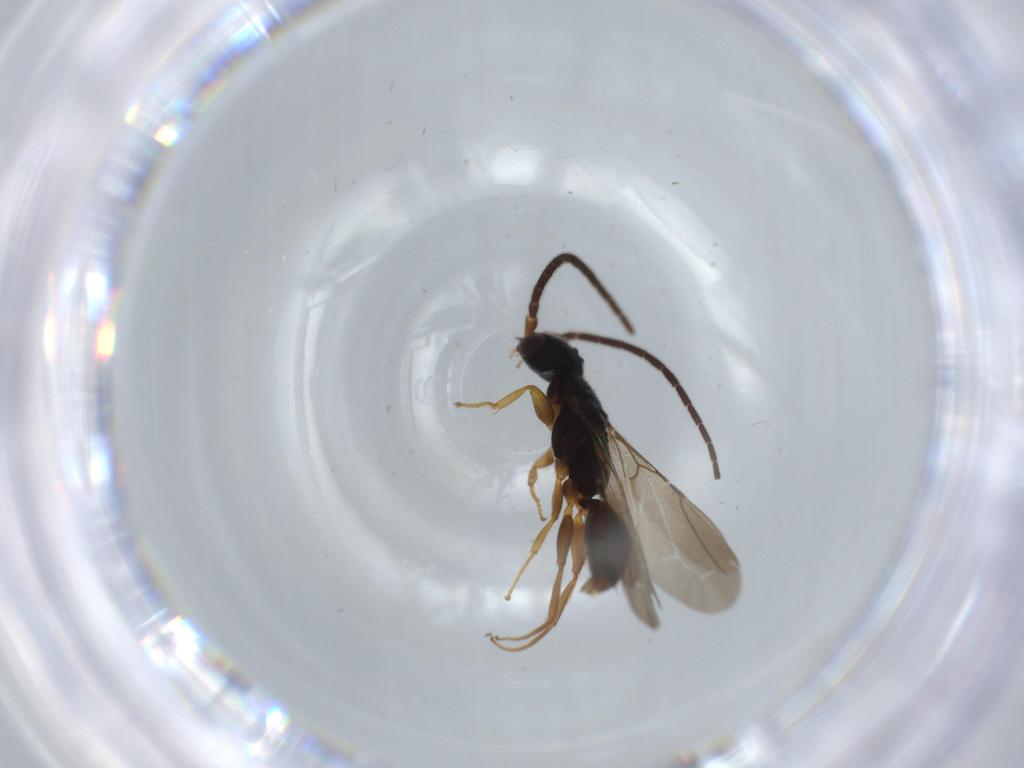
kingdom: Animalia
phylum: Arthropoda
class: Insecta
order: Hymenoptera
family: Bethylidae
